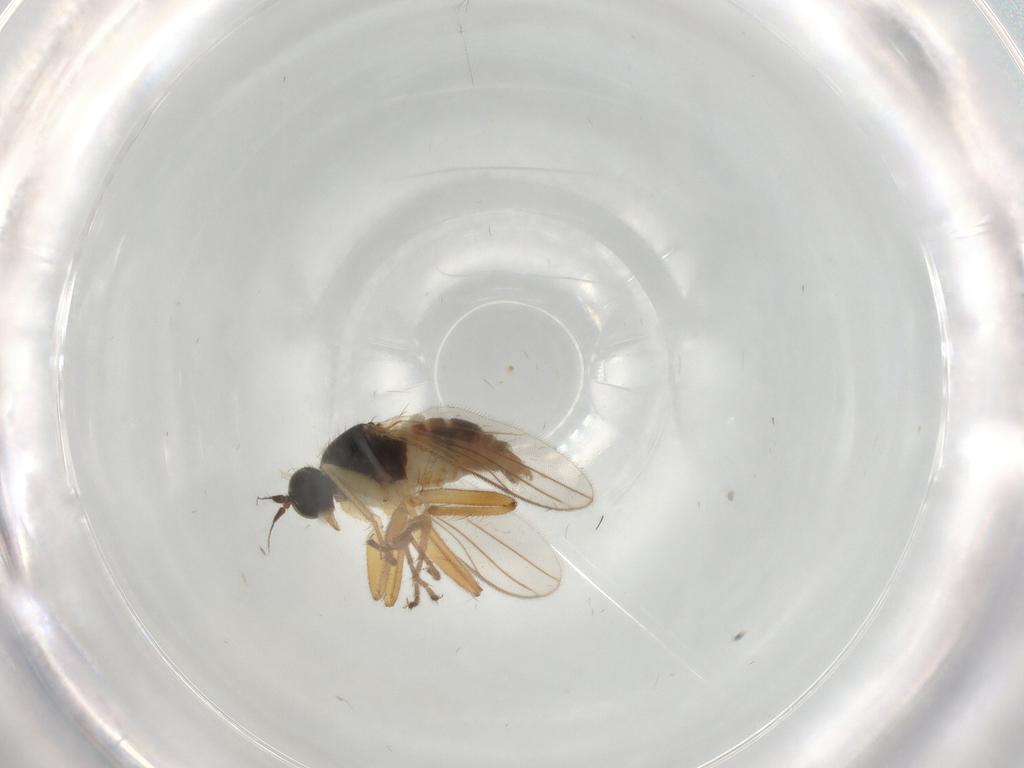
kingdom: Animalia
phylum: Arthropoda
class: Insecta
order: Diptera
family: Hybotidae
